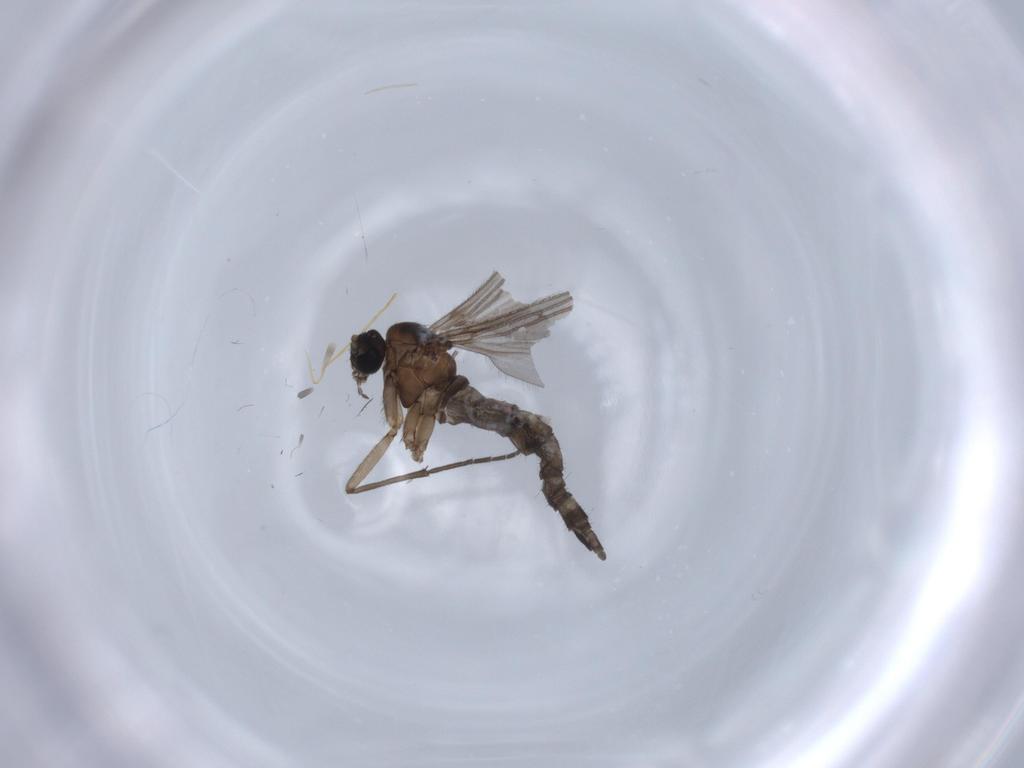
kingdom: Animalia
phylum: Arthropoda
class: Insecta
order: Diptera
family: Sciaridae
